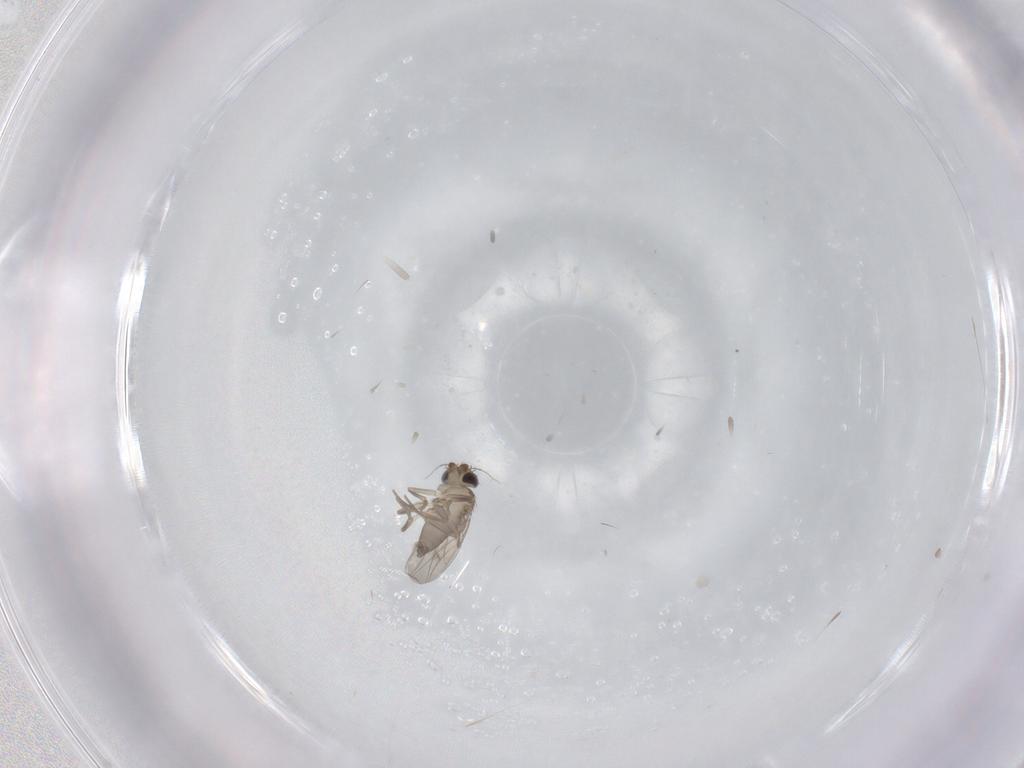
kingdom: Animalia
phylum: Arthropoda
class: Insecta
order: Diptera
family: Phoridae
